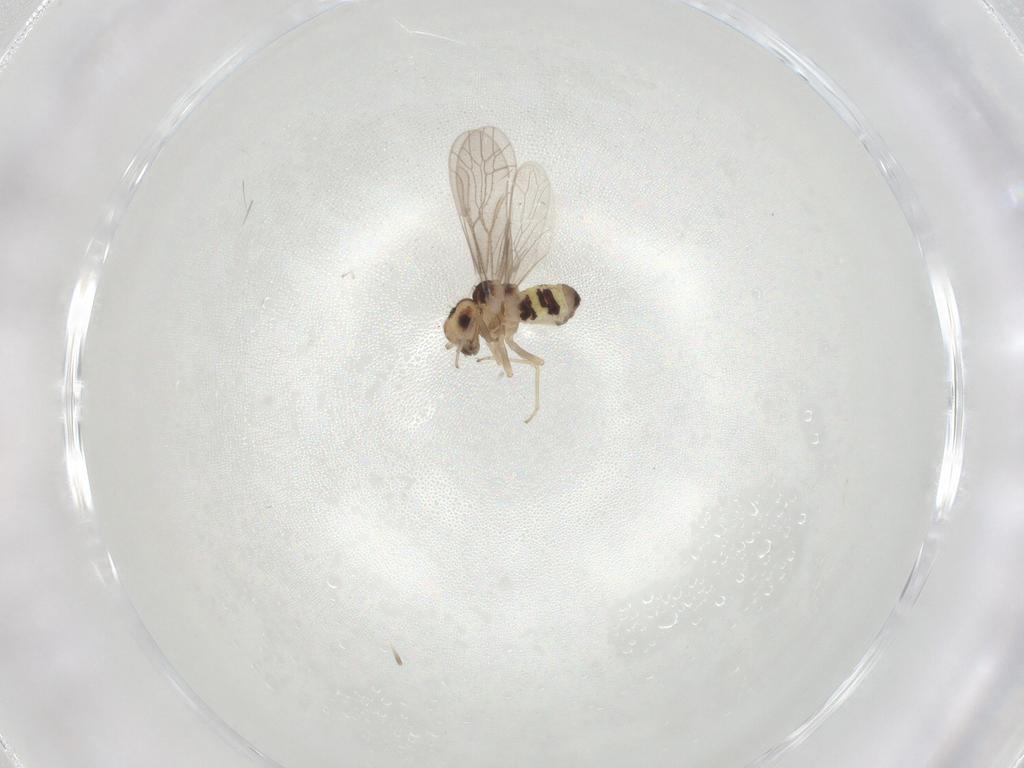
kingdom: Animalia
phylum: Arthropoda
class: Insecta
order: Psocodea
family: Archipsocidae
